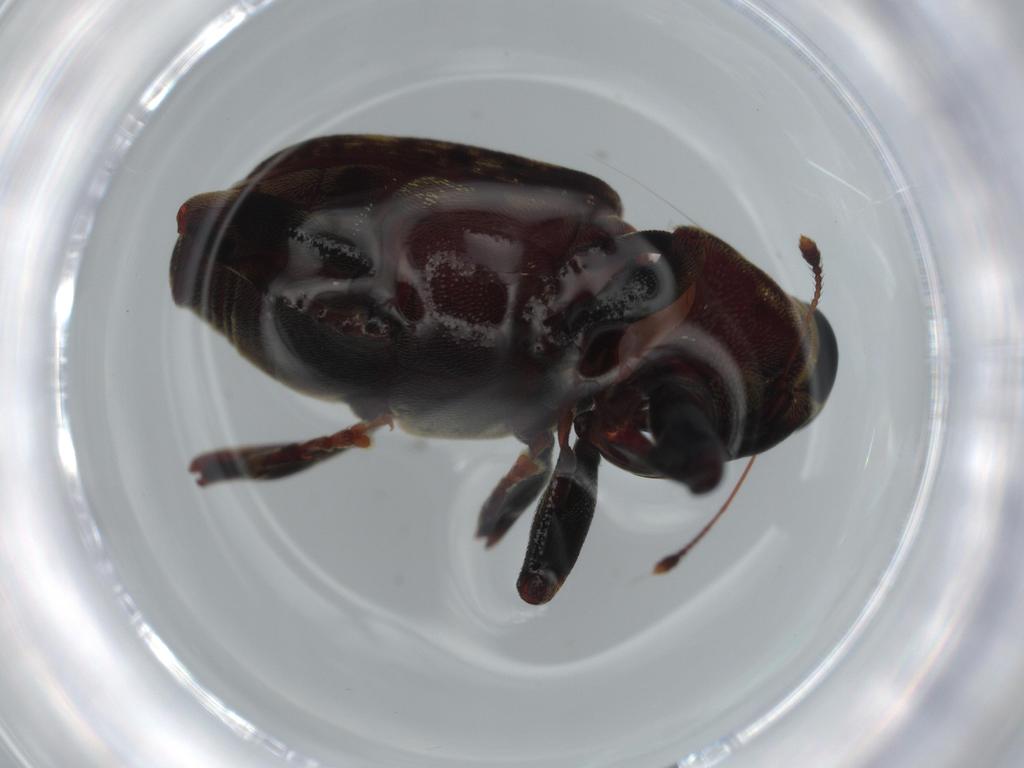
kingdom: Animalia
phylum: Arthropoda
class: Insecta
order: Coleoptera
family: Curculionidae
